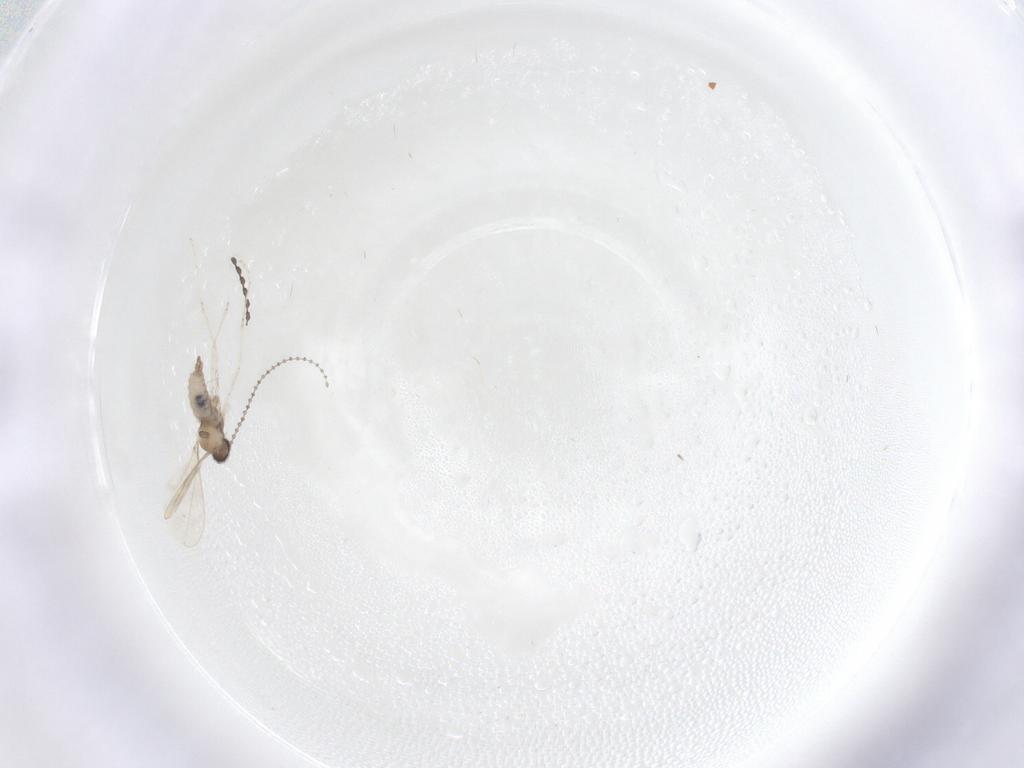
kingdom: Animalia
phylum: Arthropoda
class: Insecta
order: Diptera
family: Cecidomyiidae
